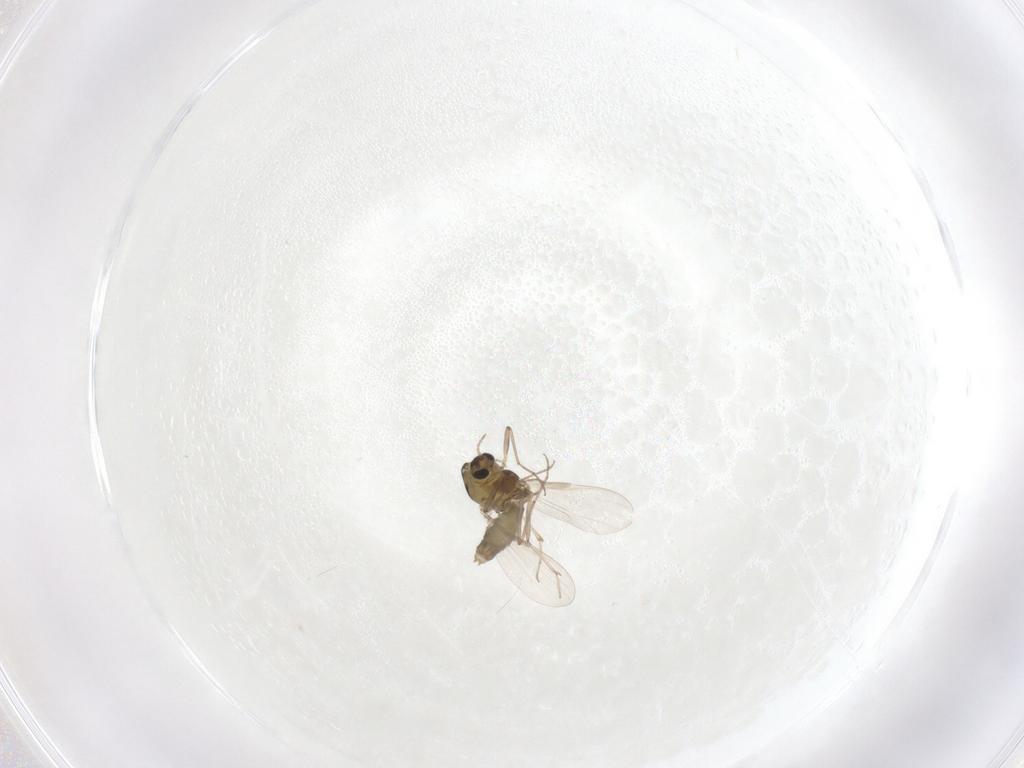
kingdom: Animalia
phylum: Arthropoda
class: Insecta
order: Diptera
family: Chironomidae
